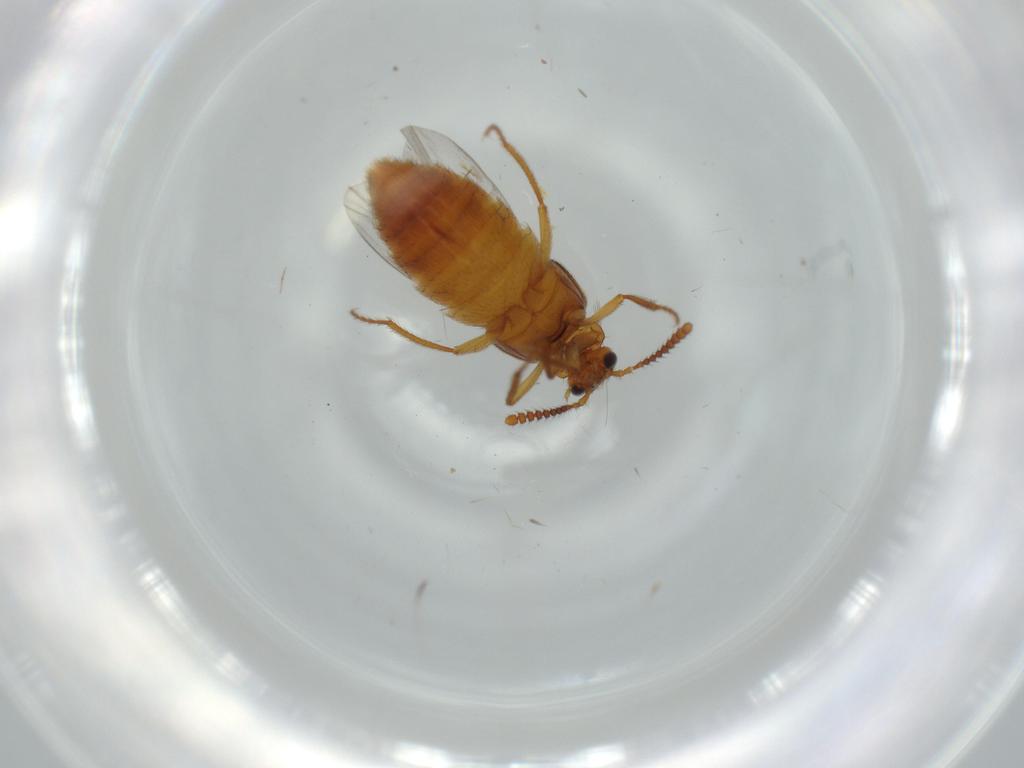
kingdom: Animalia
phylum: Arthropoda
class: Insecta
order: Coleoptera
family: Staphylinidae
